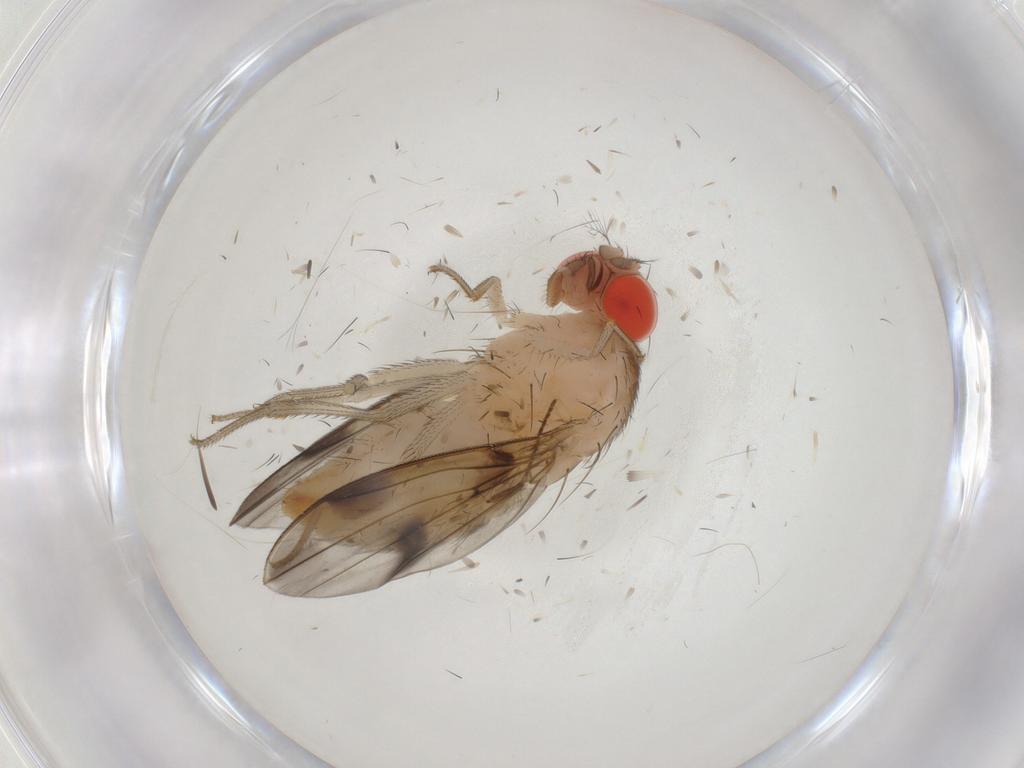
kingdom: Animalia
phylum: Arthropoda
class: Insecta
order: Diptera
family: Drosophilidae
